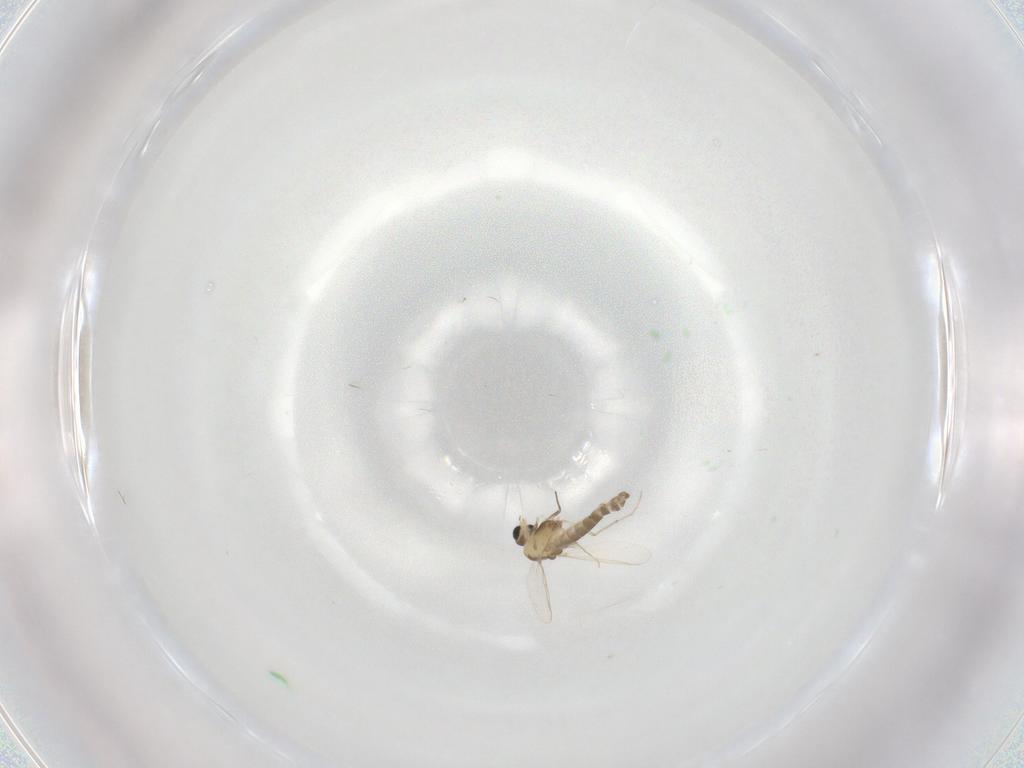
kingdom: Animalia
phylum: Arthropoda
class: Insecta
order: Diptera
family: Chironomidae
